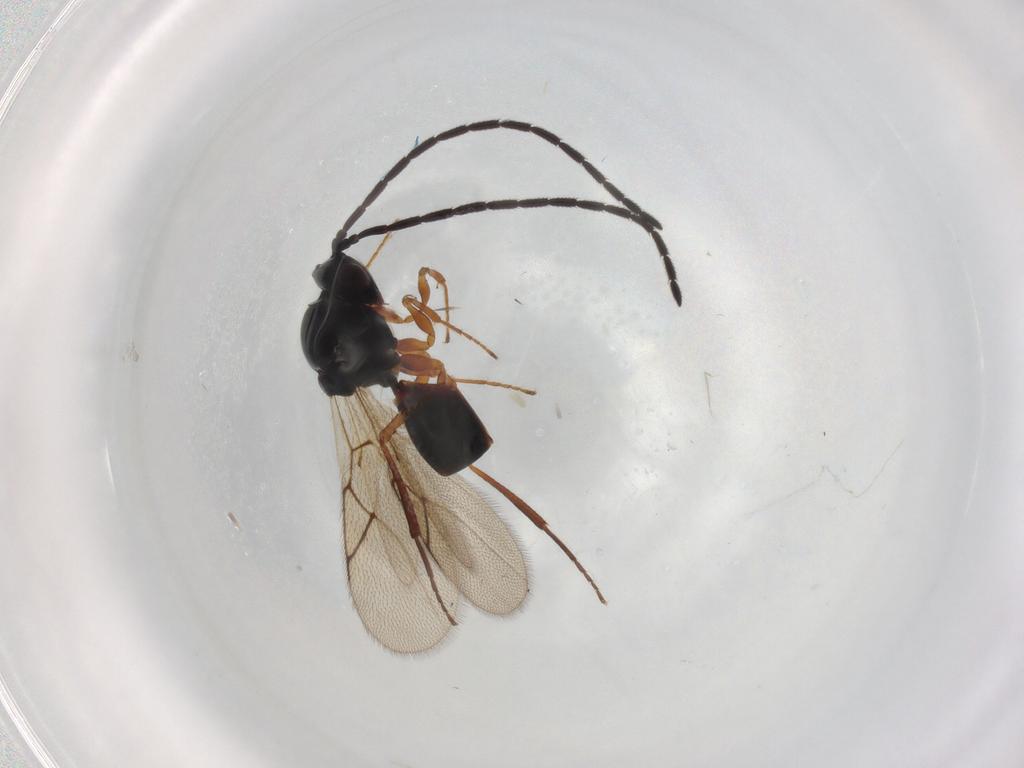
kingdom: Animalia
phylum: Arthropoda
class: Insecta
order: Hymenoptera
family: Figitidae
